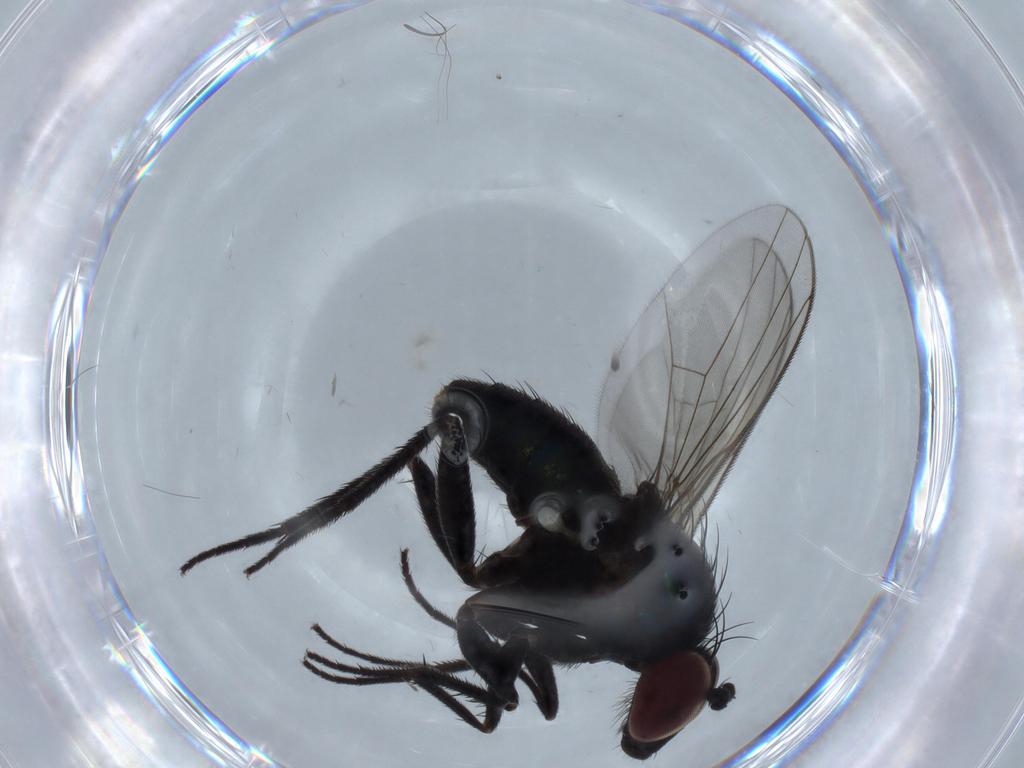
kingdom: Animalia
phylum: Arthropoda
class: Insecta
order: Diptera
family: Dolichopodidae
